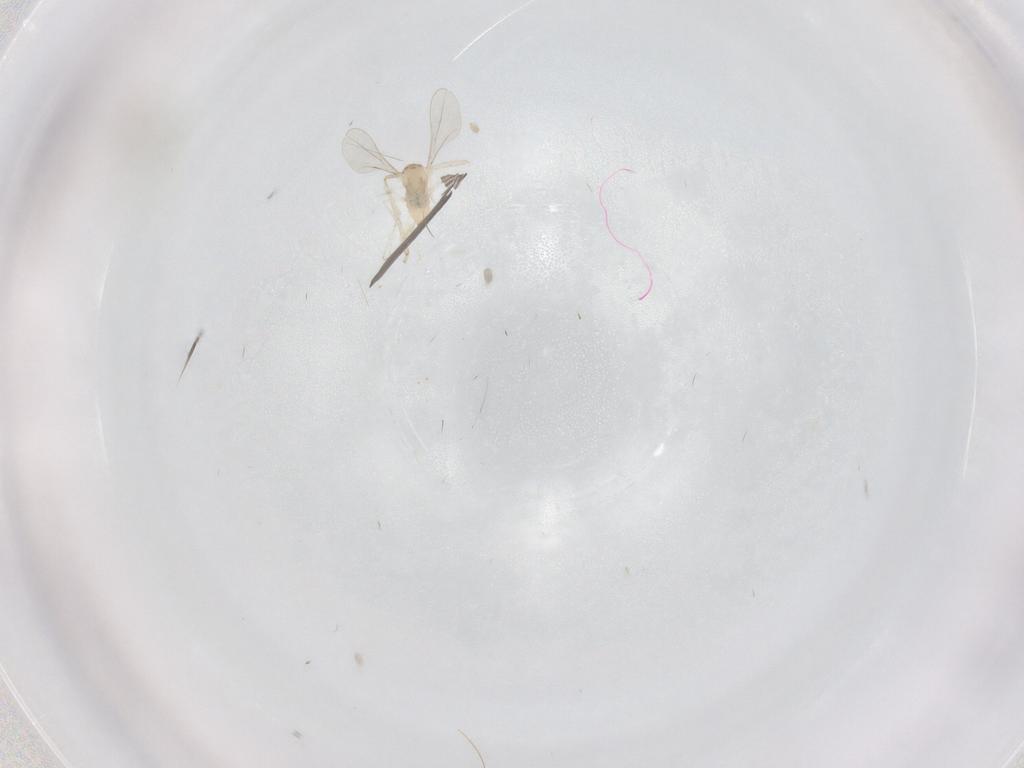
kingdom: Animalia
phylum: Arthropoda
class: Insecta
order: Diptera
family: Cecidomyiidae
